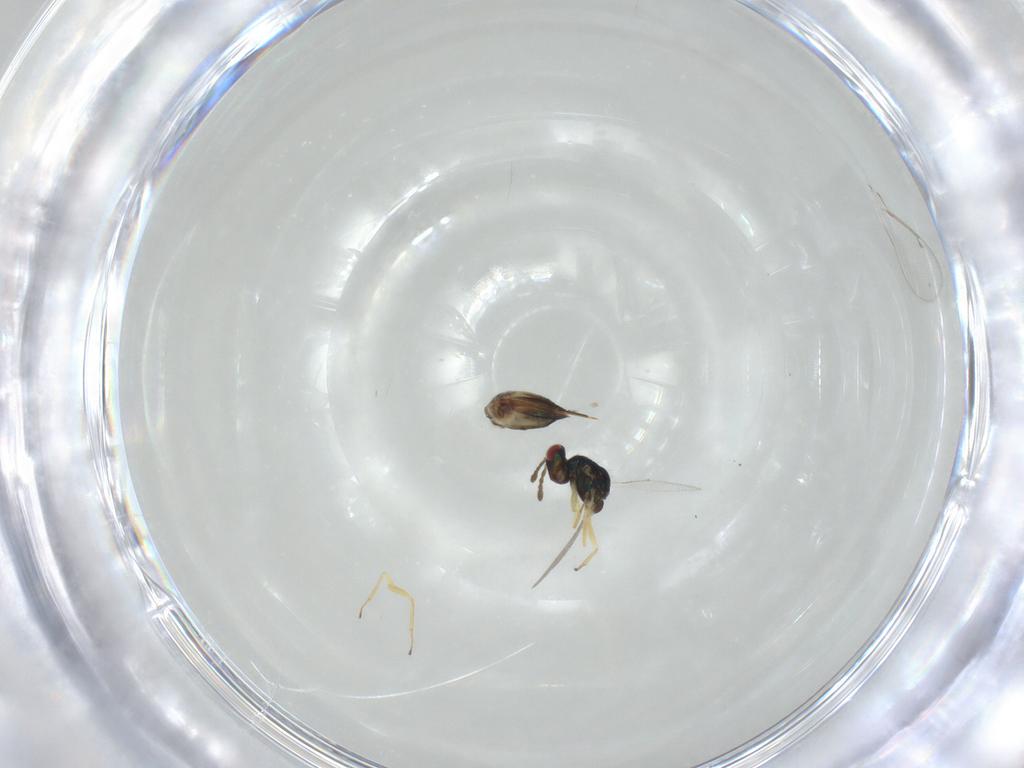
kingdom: Animalia
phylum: Arthropoda
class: Insecta
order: Hymenoptera
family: Eulophidae
